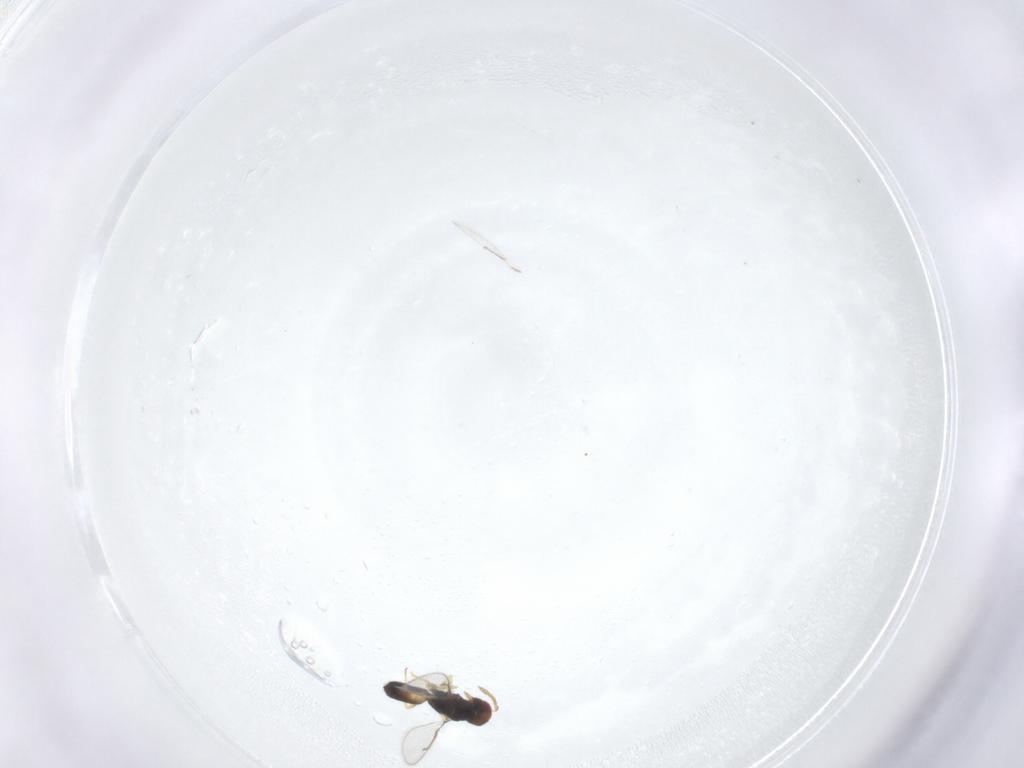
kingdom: Animalia
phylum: Arthropoda
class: Insecta
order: Hymenoptera
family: Eulophidae
